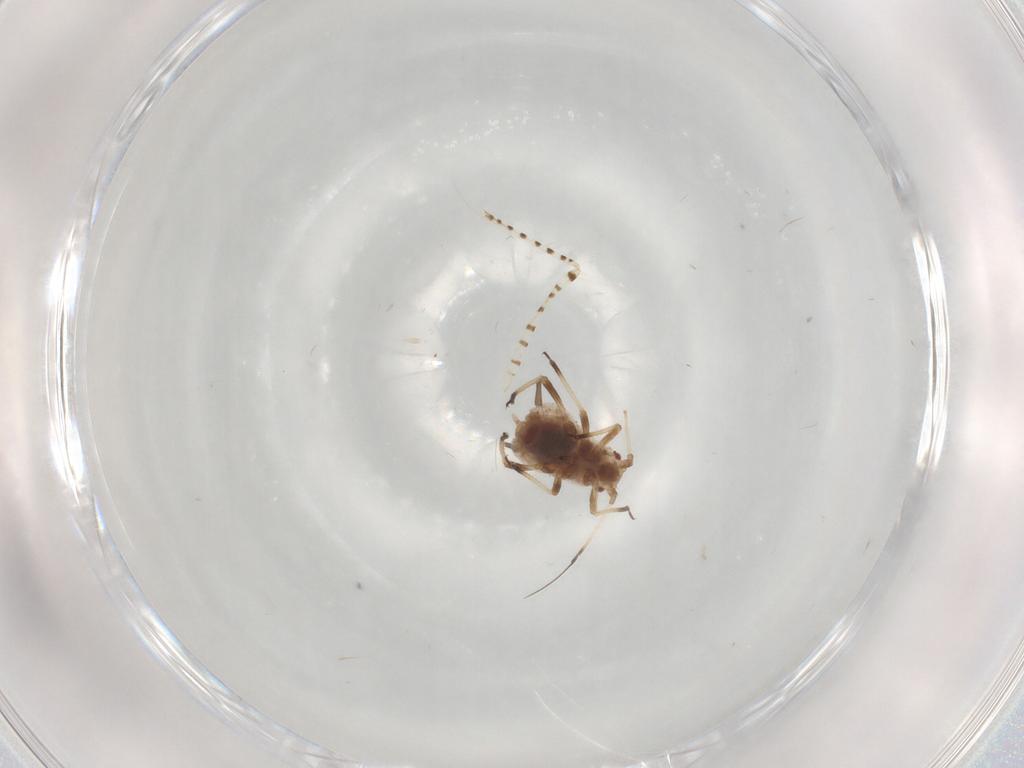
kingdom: Animalia
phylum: Arthropoda
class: Insecta
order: Hemiptera
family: Aphididae
